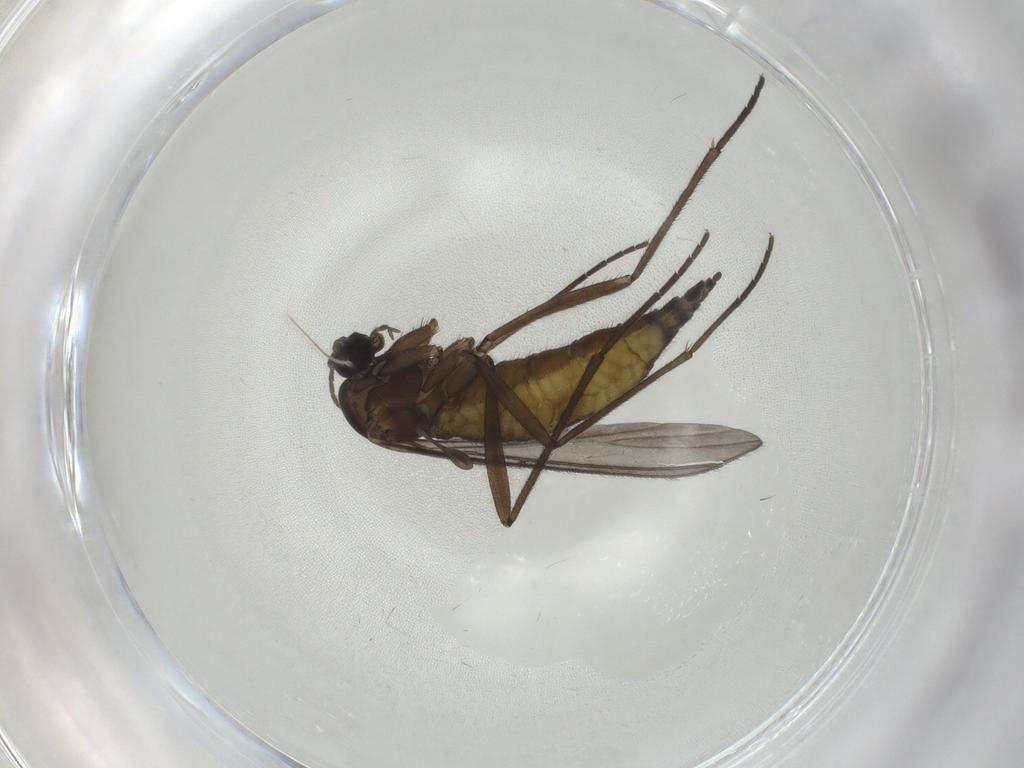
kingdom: Animalia
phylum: Arthropoda
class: Insecta
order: Diptera
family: Sciaridae
